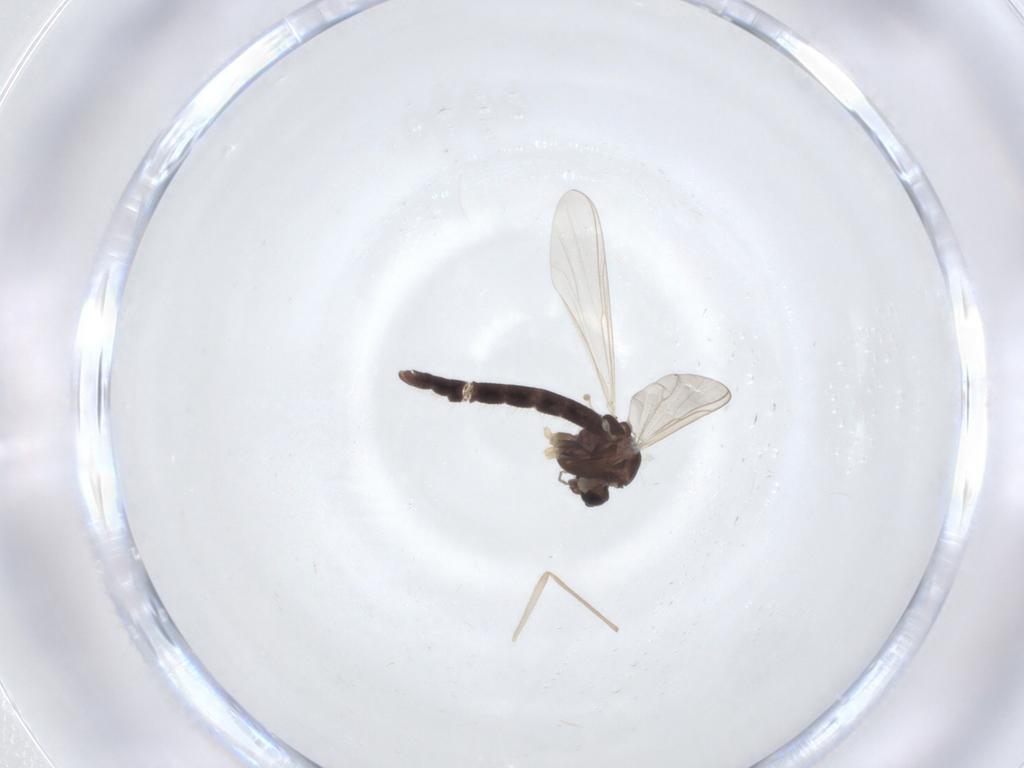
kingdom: Animalia
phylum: Arthropoda
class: Insecta
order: Diptera
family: Chironomidae
